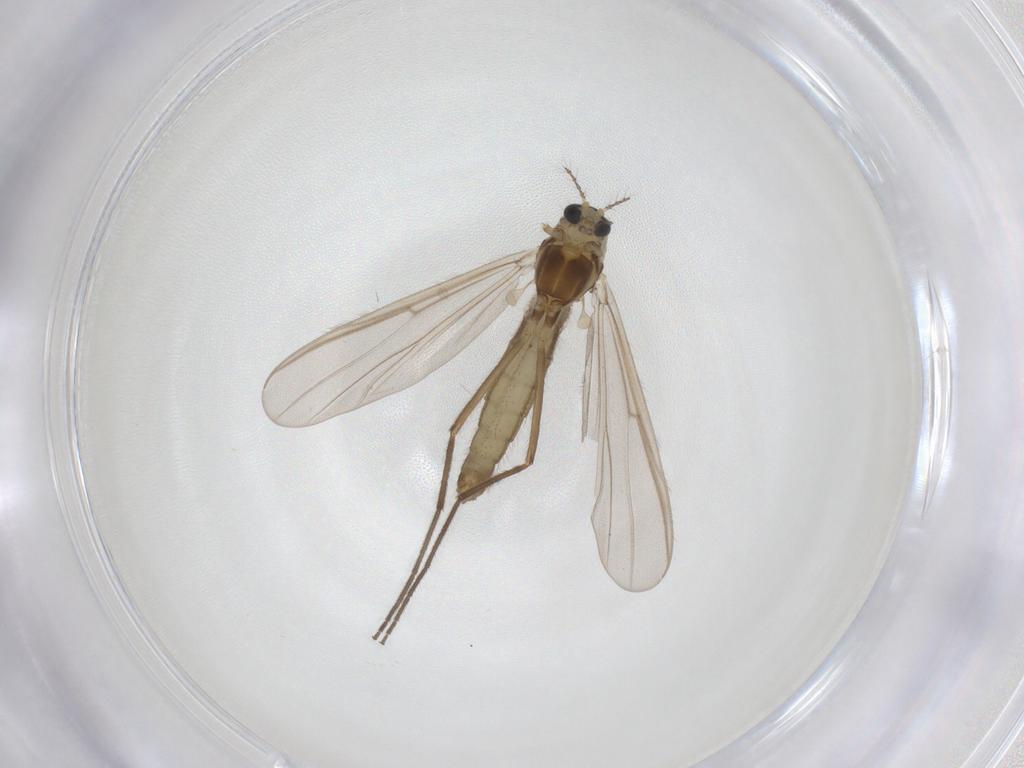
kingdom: Animalia
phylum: Arthropoda
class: Insecta
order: Diptera
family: Chironomidae
